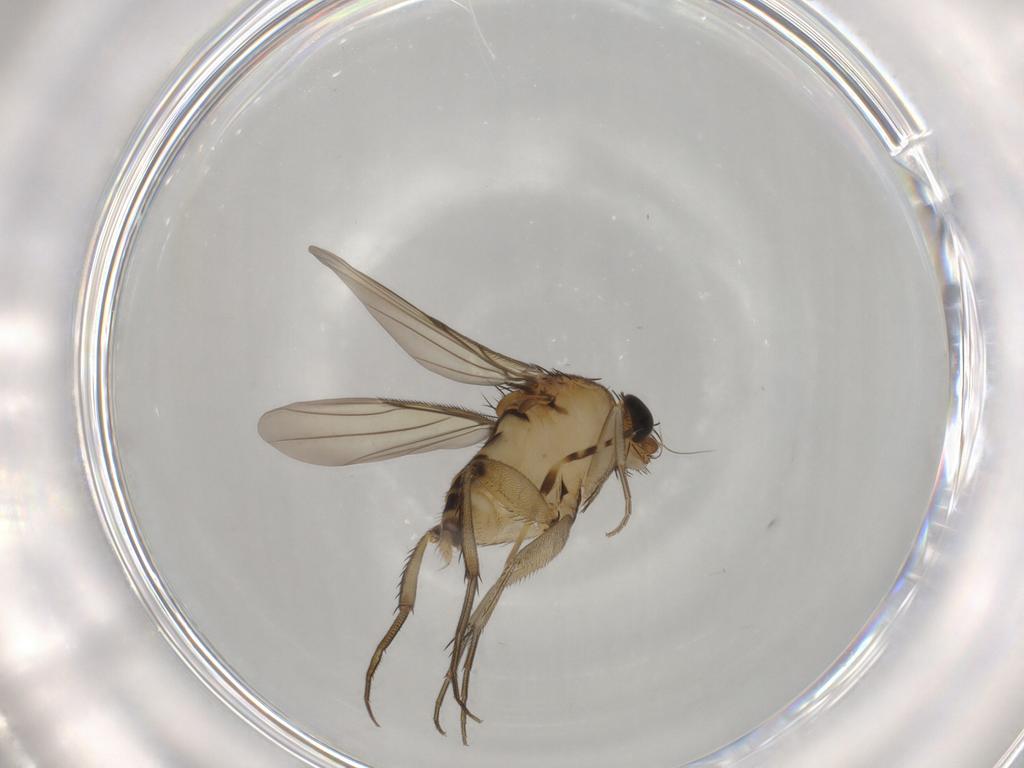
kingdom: Animalia
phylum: Arthropoda
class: Insecta
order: Diptera
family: Phoridae
